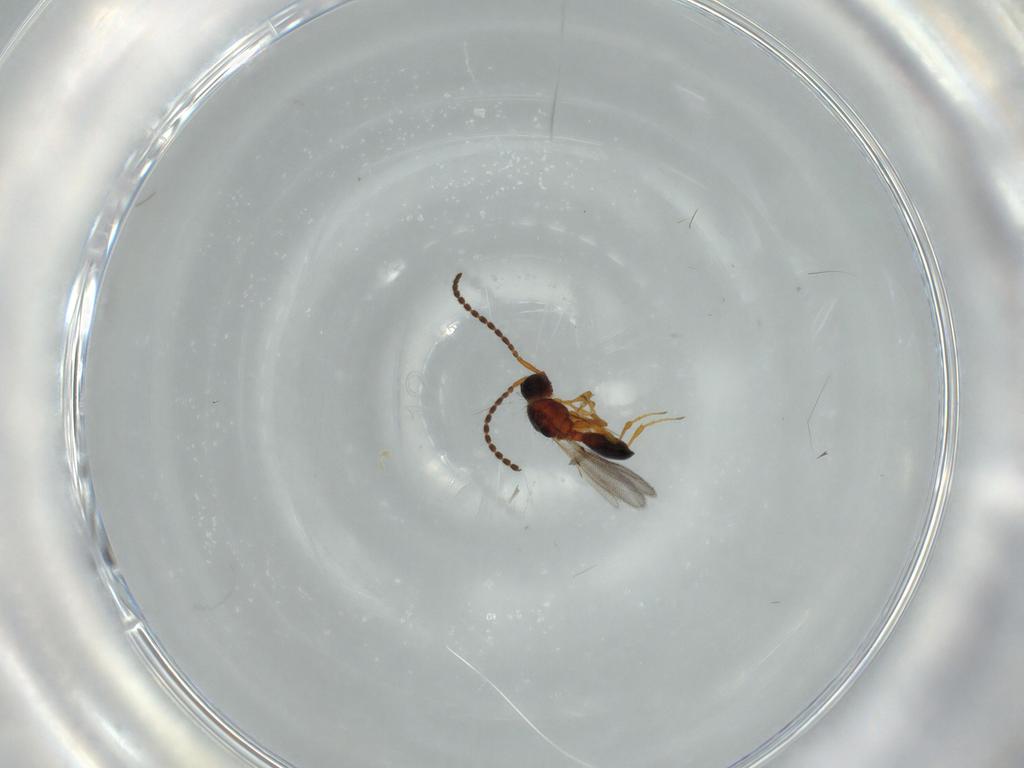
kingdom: Animalia
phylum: Arthropoda
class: Insecta
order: Hymenoptera
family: Diapriidae
